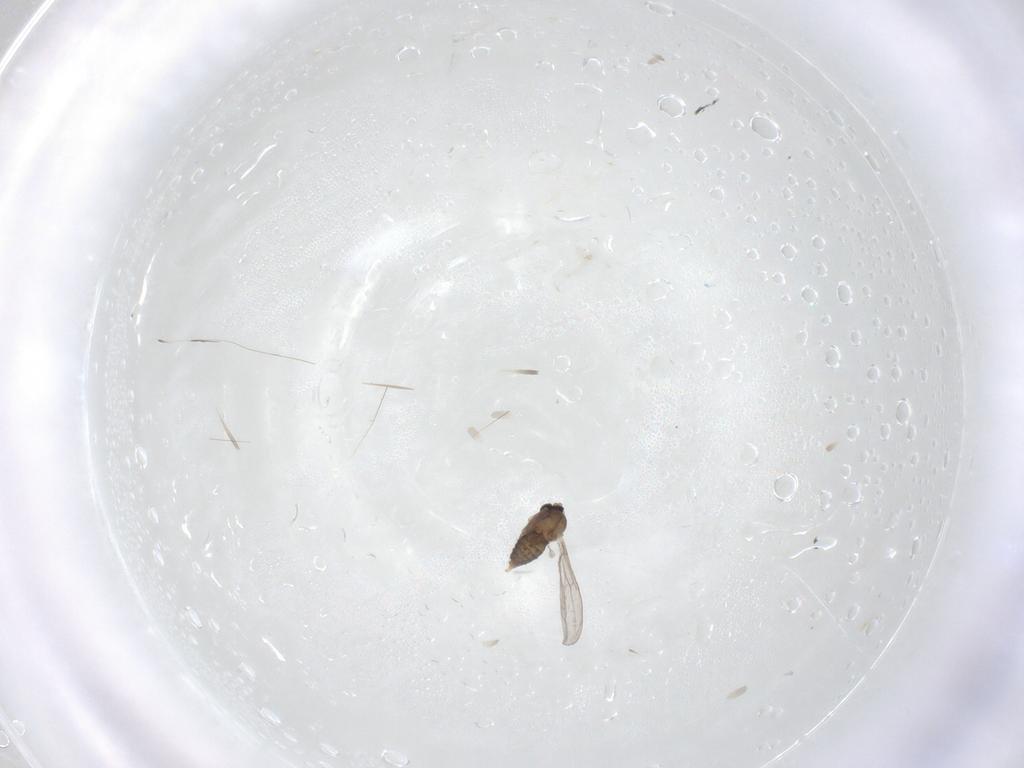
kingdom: Animalia
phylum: Arthropoda
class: Insecta
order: Diptera
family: Cecidomyiidae
